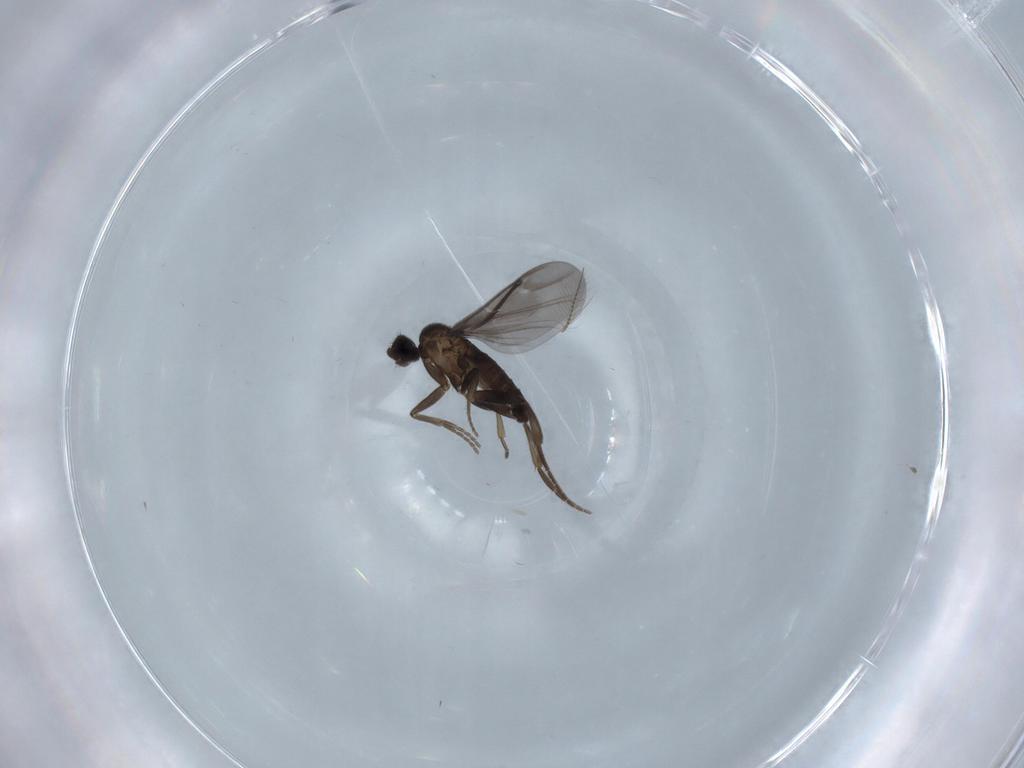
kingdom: Animalia
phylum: Arthropoda
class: Insecta
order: Diptera
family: Chironomidae
